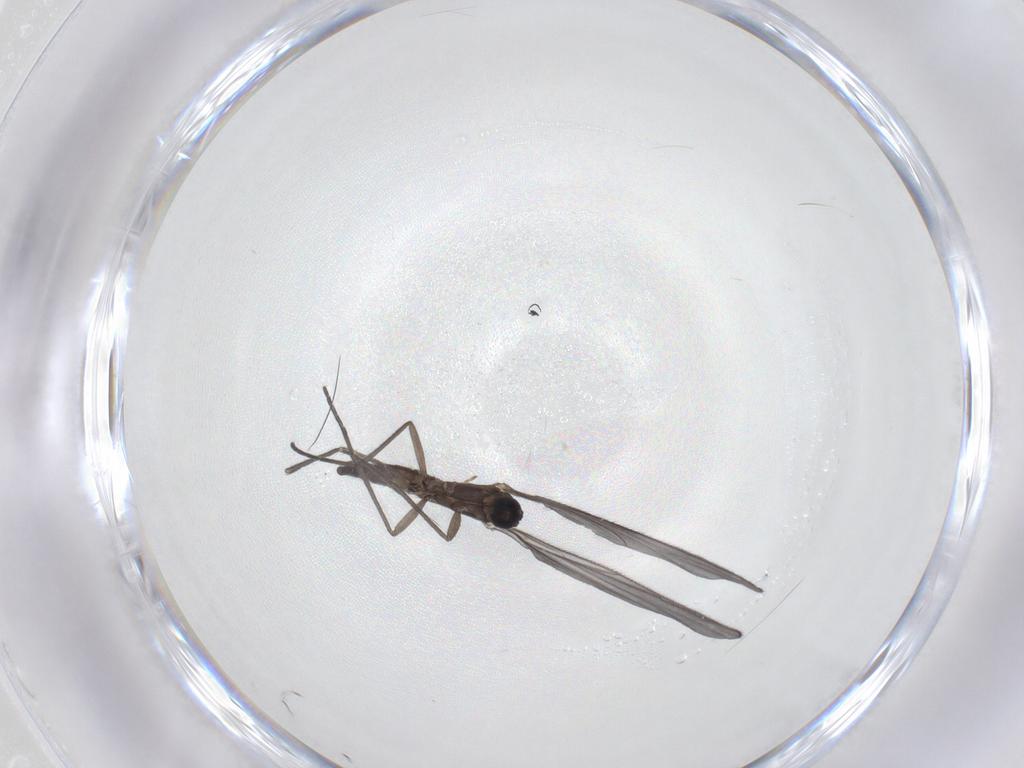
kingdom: Animalia
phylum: Arthropoda
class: Insecta
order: Diptera
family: Sciaridae
